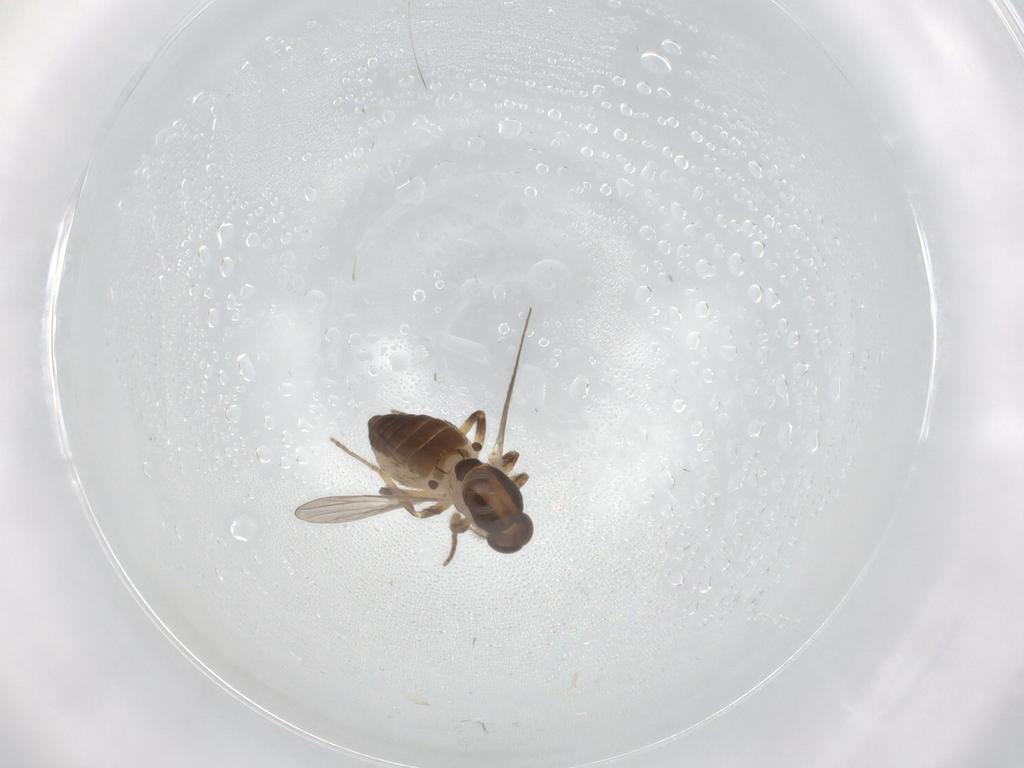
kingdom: Animalia
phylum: Arthropoda
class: Insecta
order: Diptera
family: Ceratopogonidae
